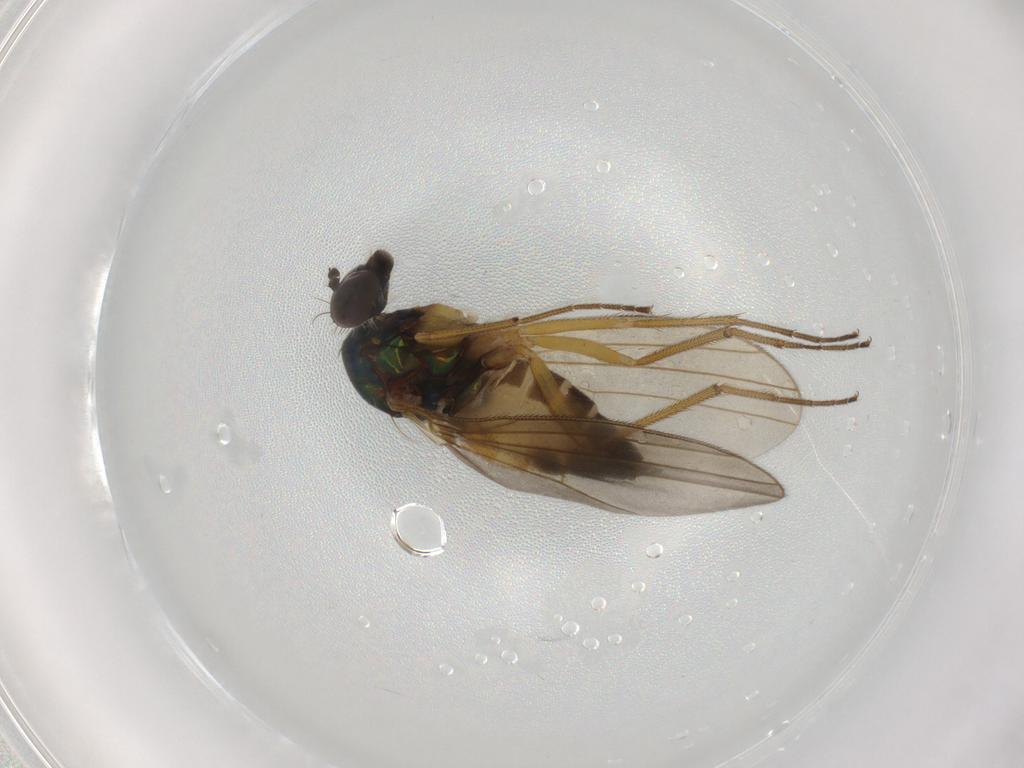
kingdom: Animalia
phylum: Arthropoda
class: Insecta
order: Diptera
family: Dolichopodidae
